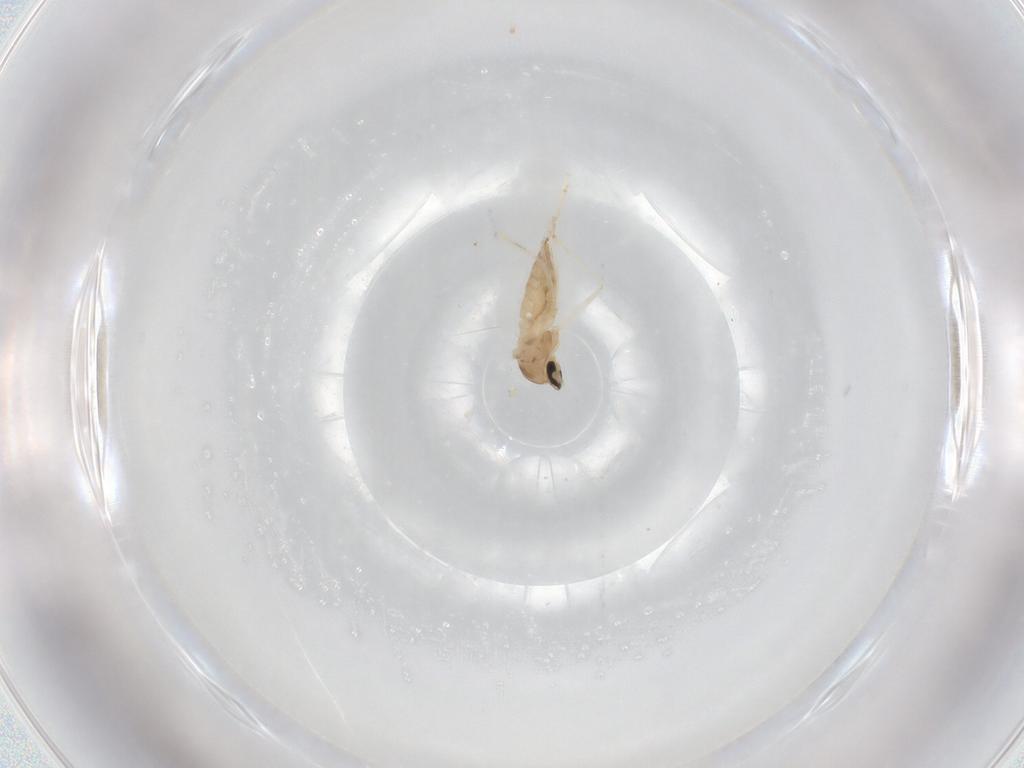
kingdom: Animalia
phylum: Arthropoda
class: Insecta
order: Diptera
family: Cecidomyiidae
